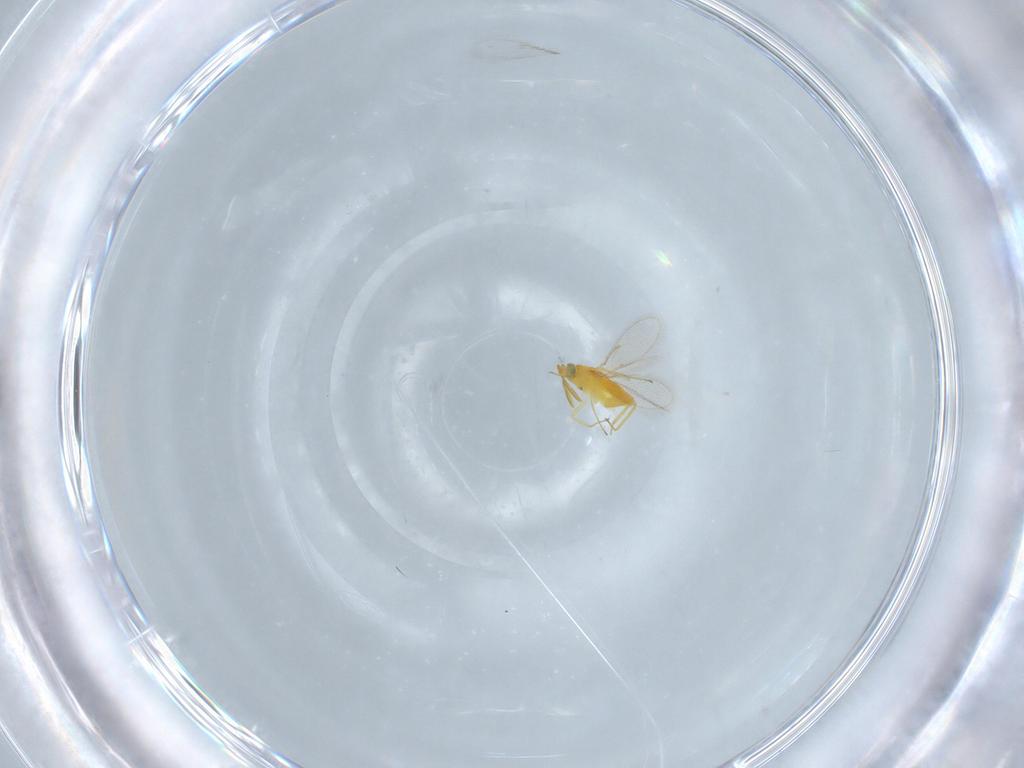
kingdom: Animalia
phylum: Arthropoda
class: Insecta
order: Hymenoptera
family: Scelionidae
